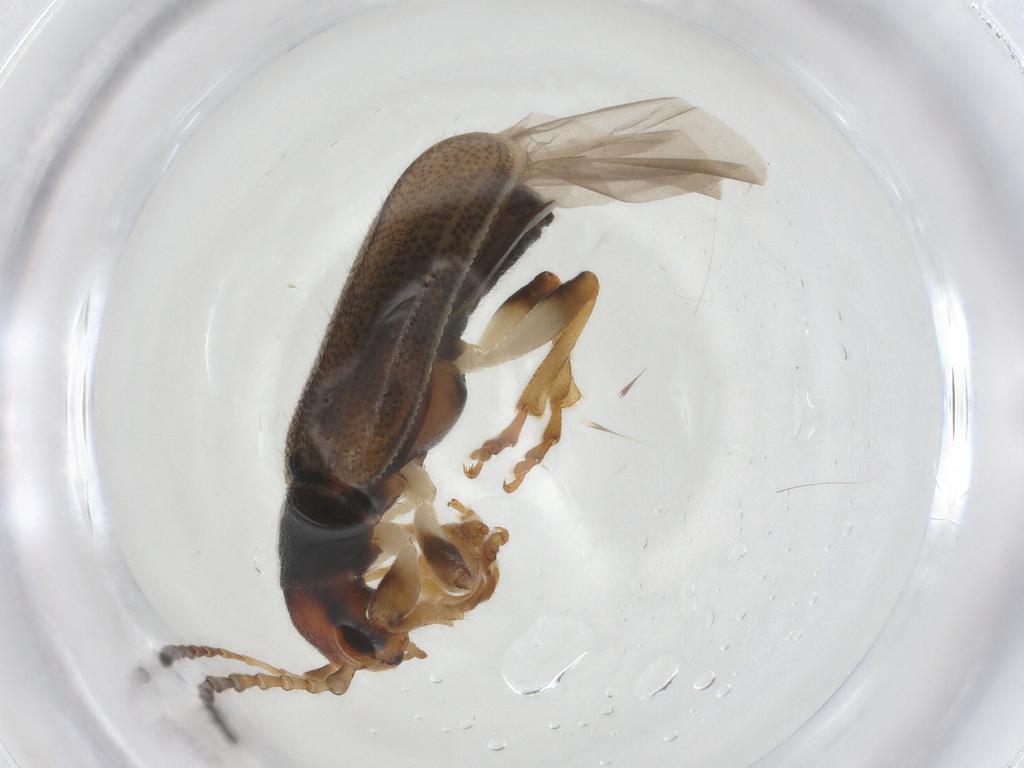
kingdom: Animalia
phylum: Arthropoda
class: Insecta
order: Coleoptera
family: Chrysomelidae
